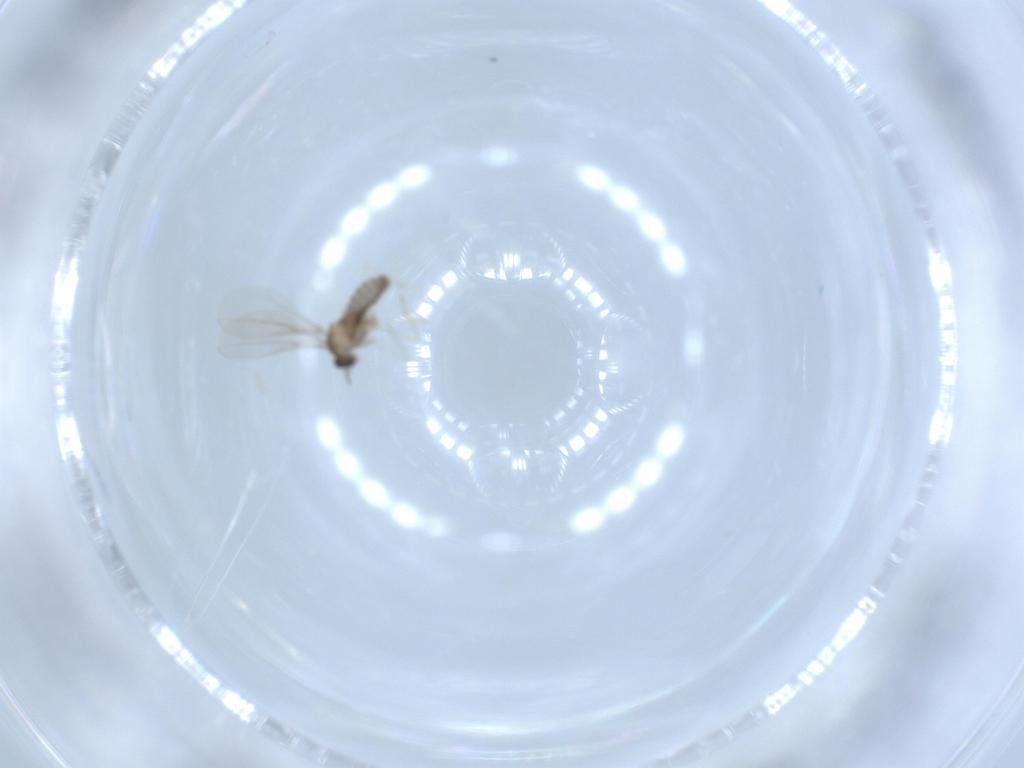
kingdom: Animalia
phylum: Arthropoda
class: Insecta
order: Diptera
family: Cecidomyiidae
